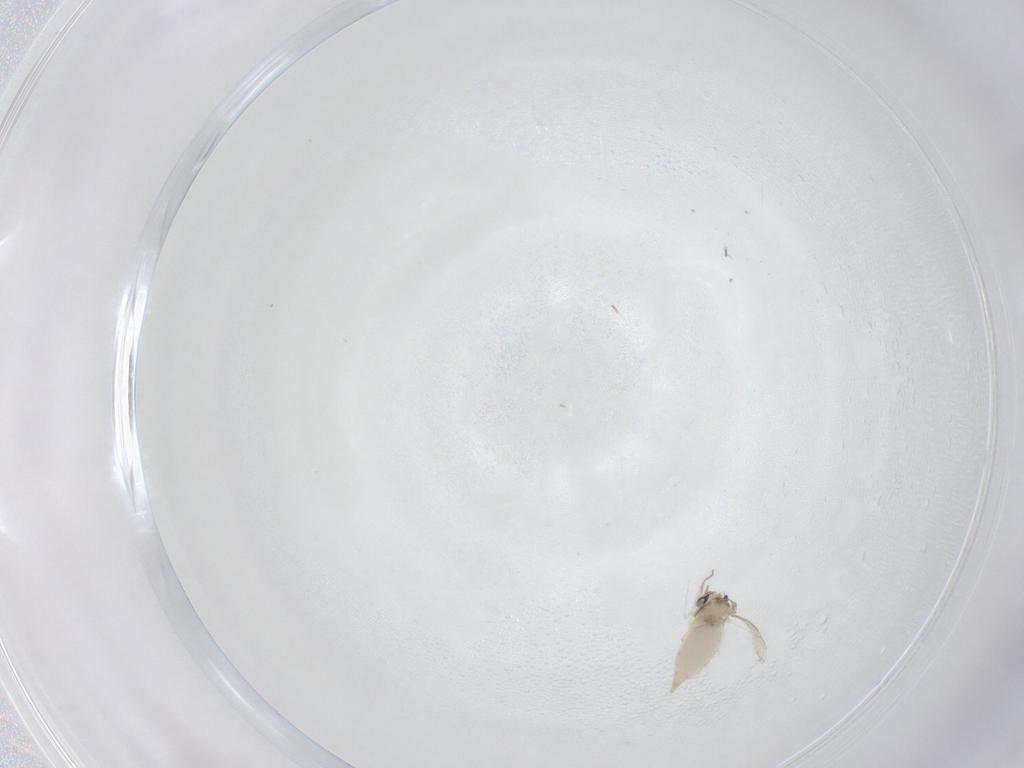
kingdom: Animalia
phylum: Arthropoda
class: Insecta
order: Diptera
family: Cecidomyiidae
